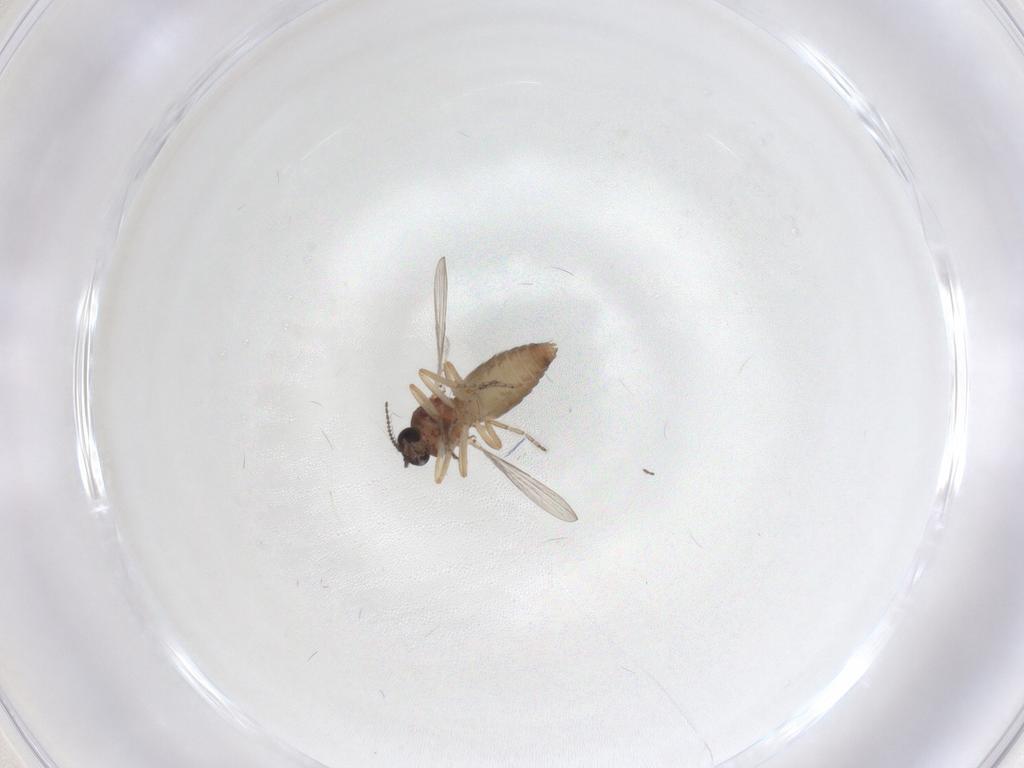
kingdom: Animalia
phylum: Arthropoda
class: Insecta
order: Diptera
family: Ceratopogonidae
